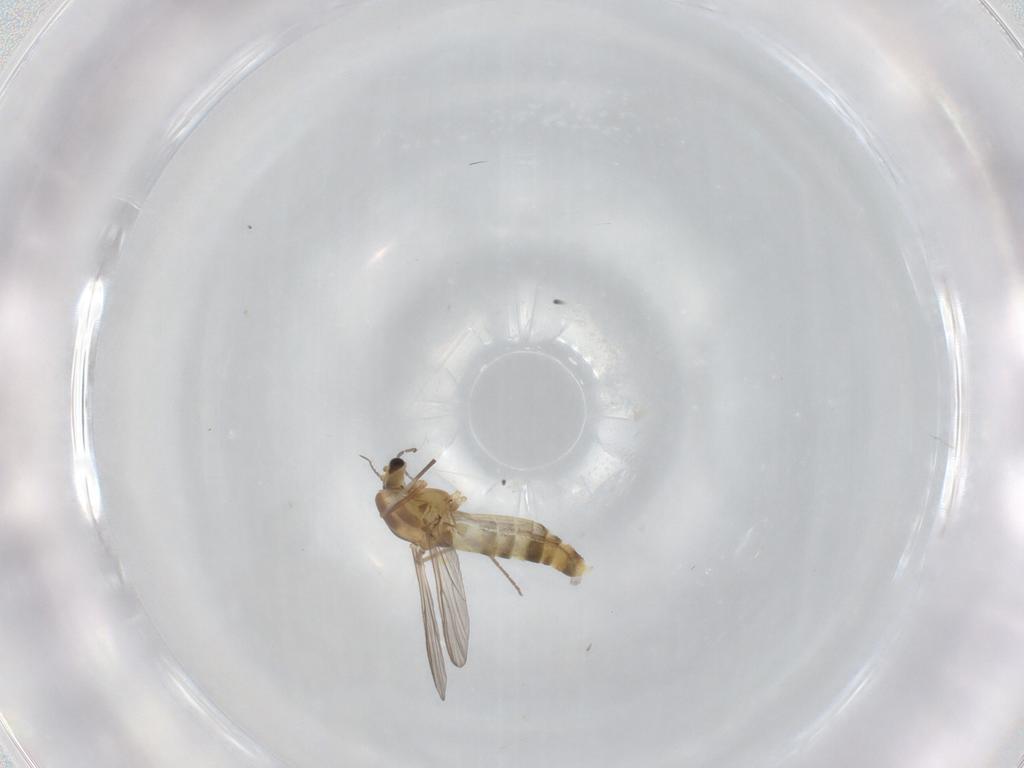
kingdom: Animalia
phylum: Arthropoda
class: Insecta
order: Diptera
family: Chironomidae
